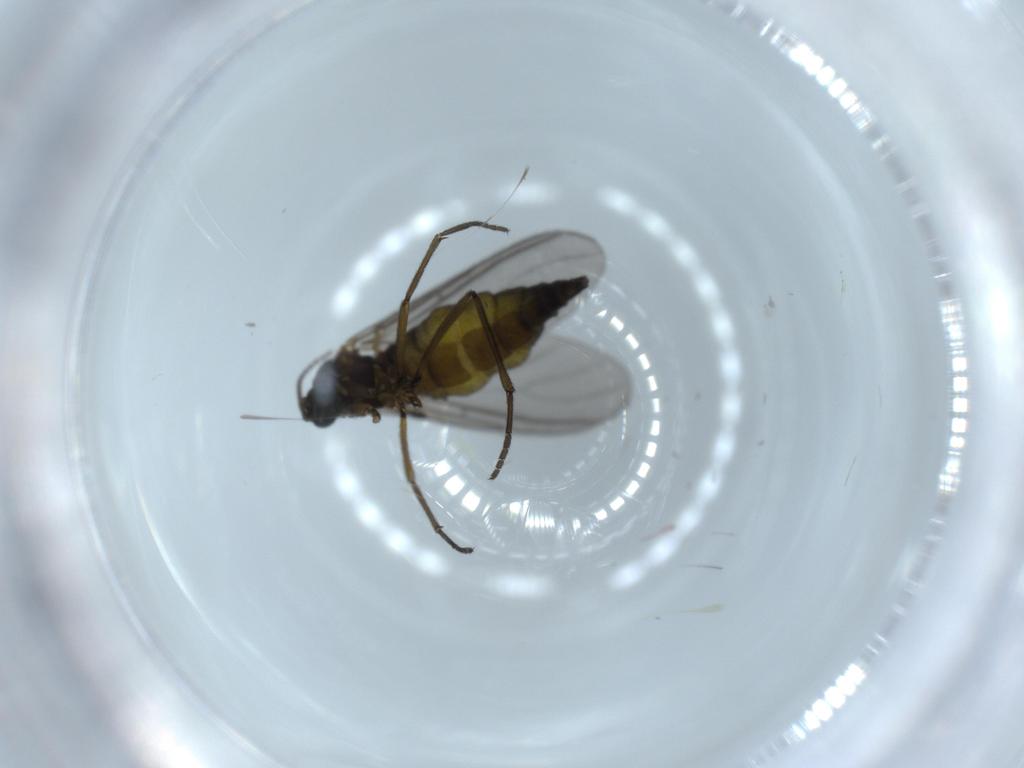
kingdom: Animalia
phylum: Arthropoda
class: Insecta
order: Diptera
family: Sciaridae
